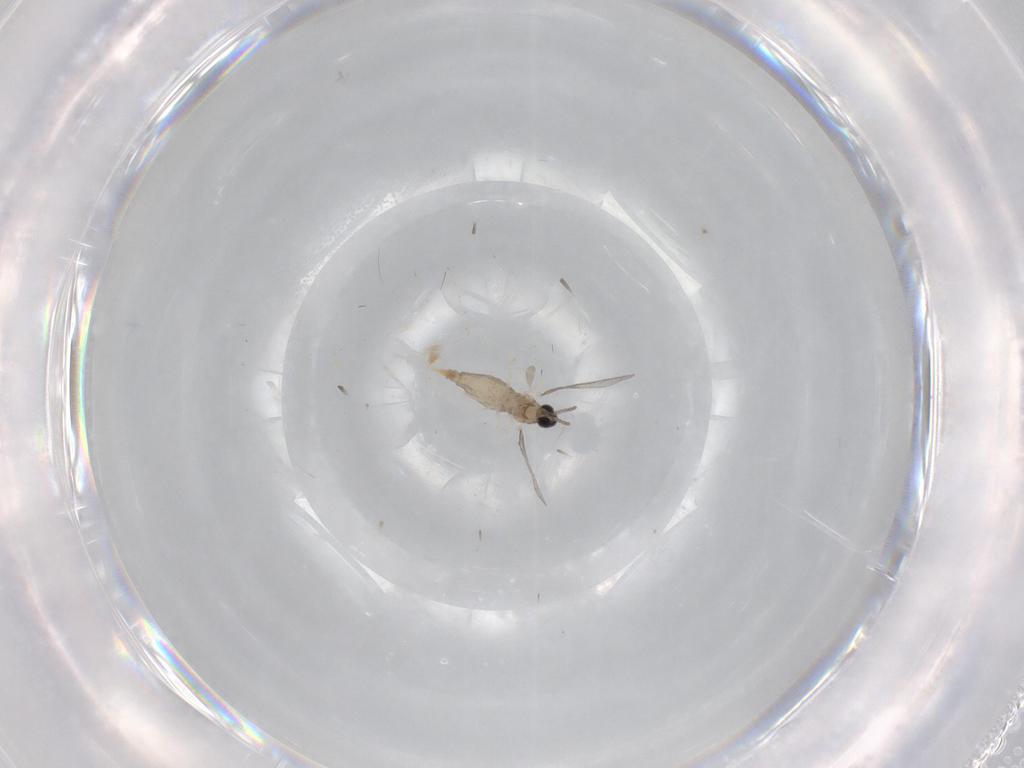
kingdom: Animalia
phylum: Arthropoda
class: Insecta
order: Diptera
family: Cecidomyiidae
